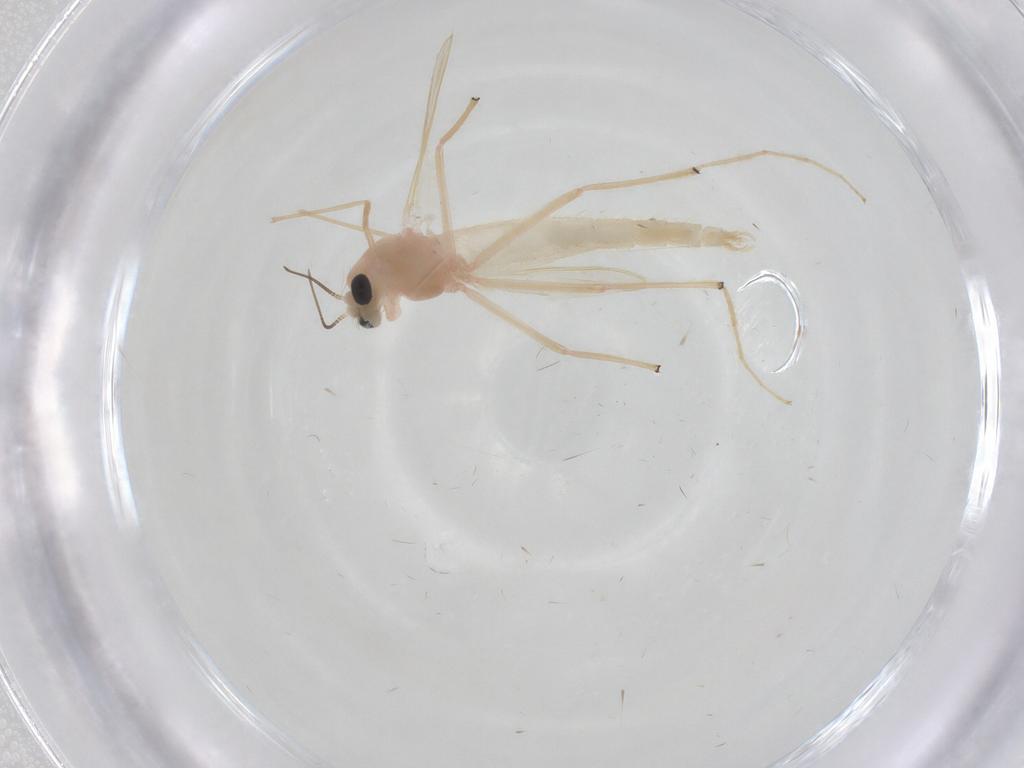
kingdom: Animalia
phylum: Arthropoda
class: Insecta
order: Diptera
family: Chironomidae
